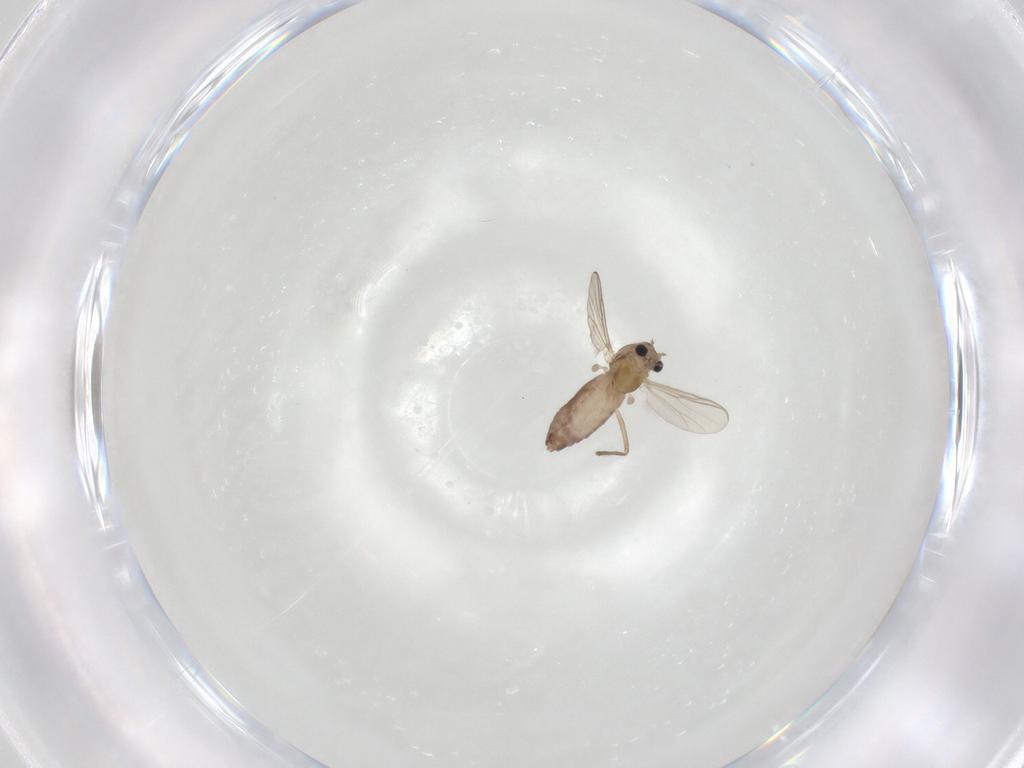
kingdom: Animalia
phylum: Arthropoda
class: Insecta
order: Diptera
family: Chironomidae
